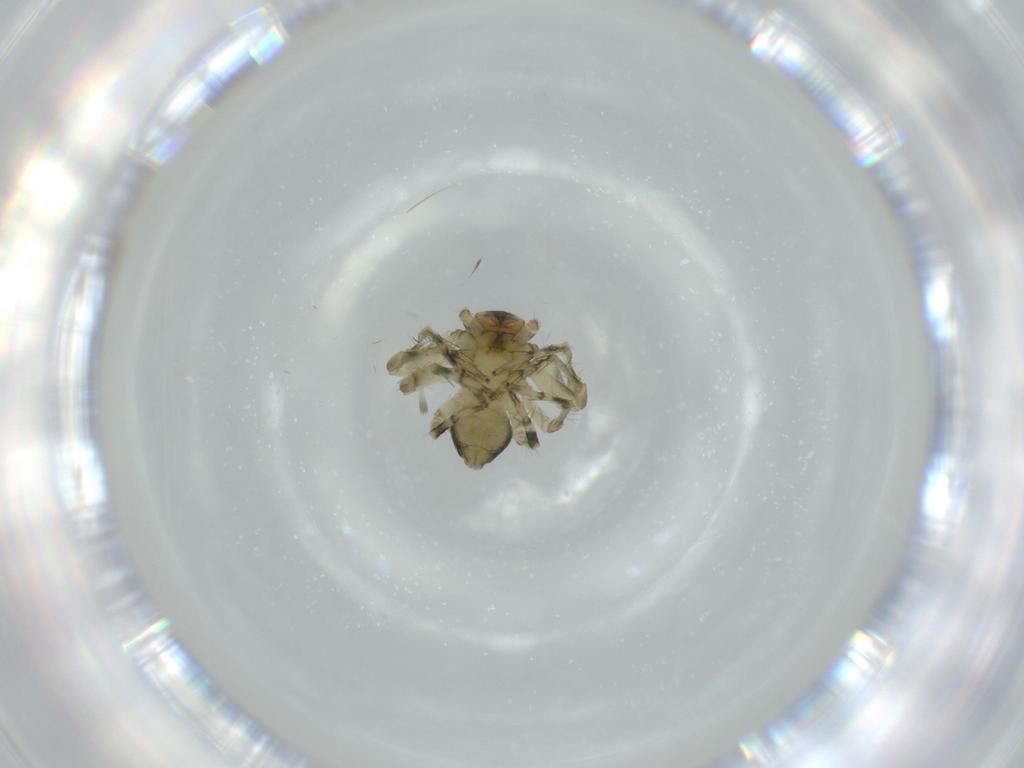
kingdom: Animalia
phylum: Arthropoda
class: Arachnida
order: Araneae
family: Oxyopidae
